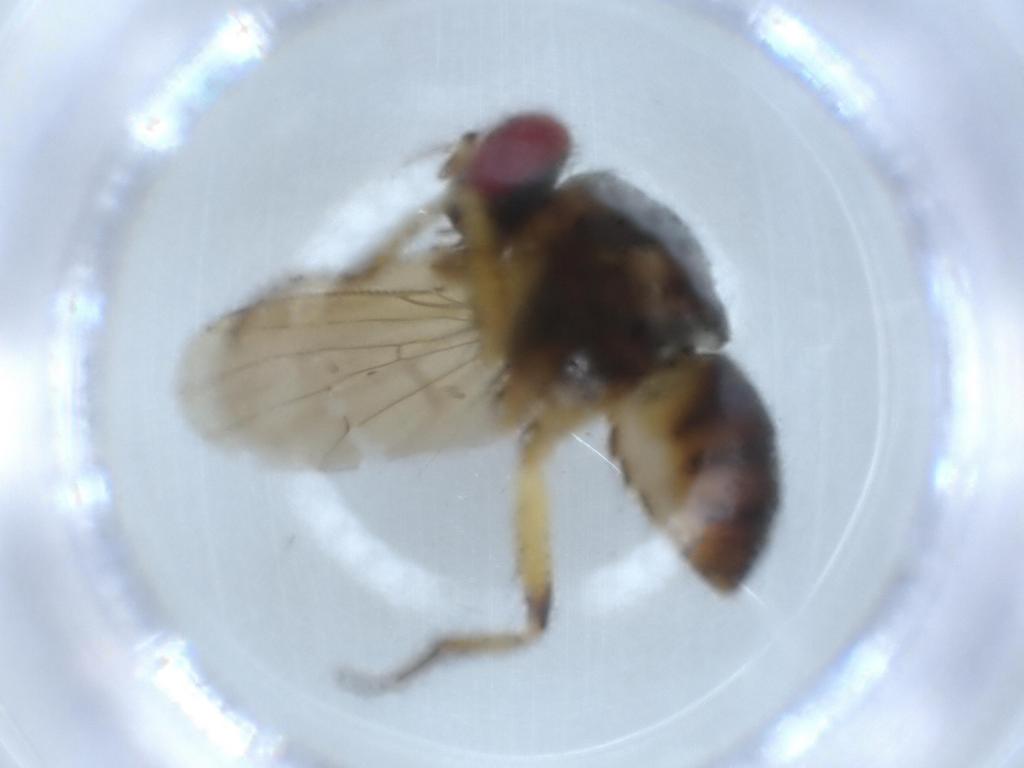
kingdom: Animalia
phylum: Arthropoda
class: Insecta
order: Diptera
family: Muscidae
